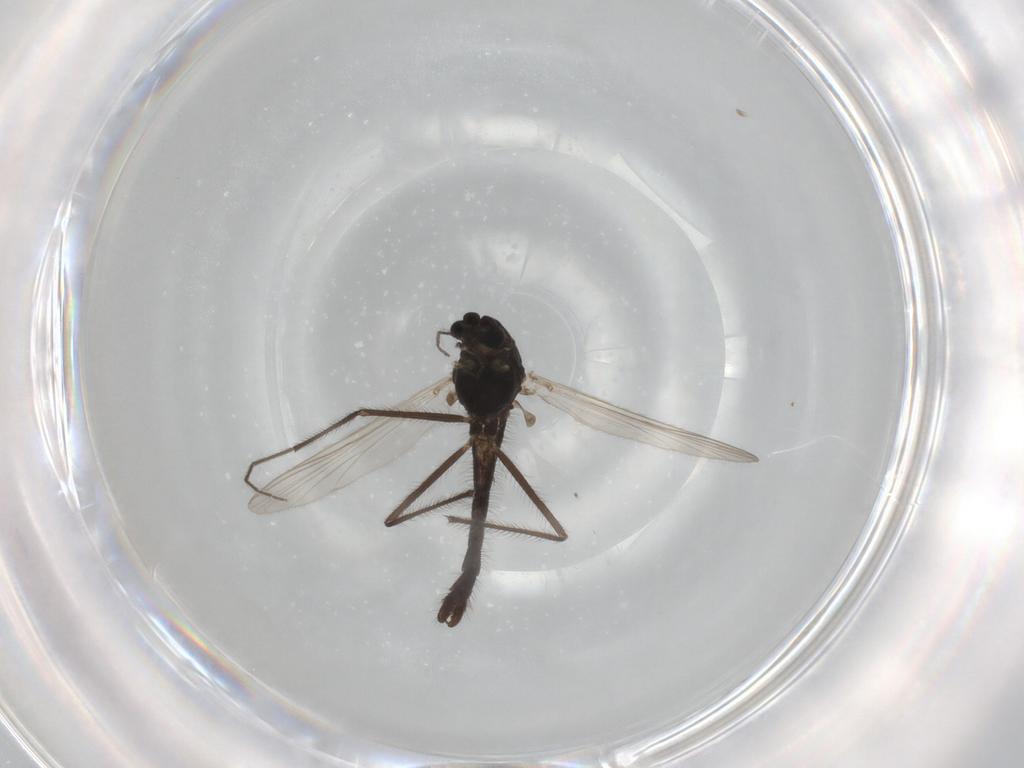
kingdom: Animalia
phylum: Arthropoda
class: Insecta
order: Diptera
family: Chironomidae
